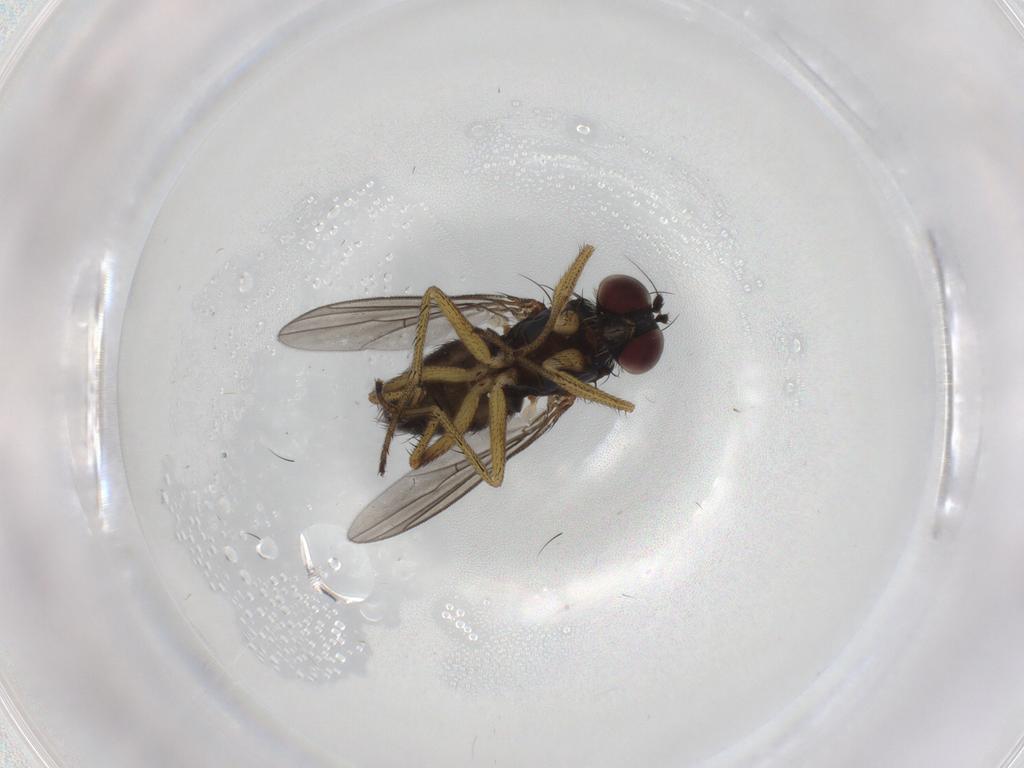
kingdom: Animalia
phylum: Arthropoda
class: Insecta
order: Diptera
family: Dolichopodidae
